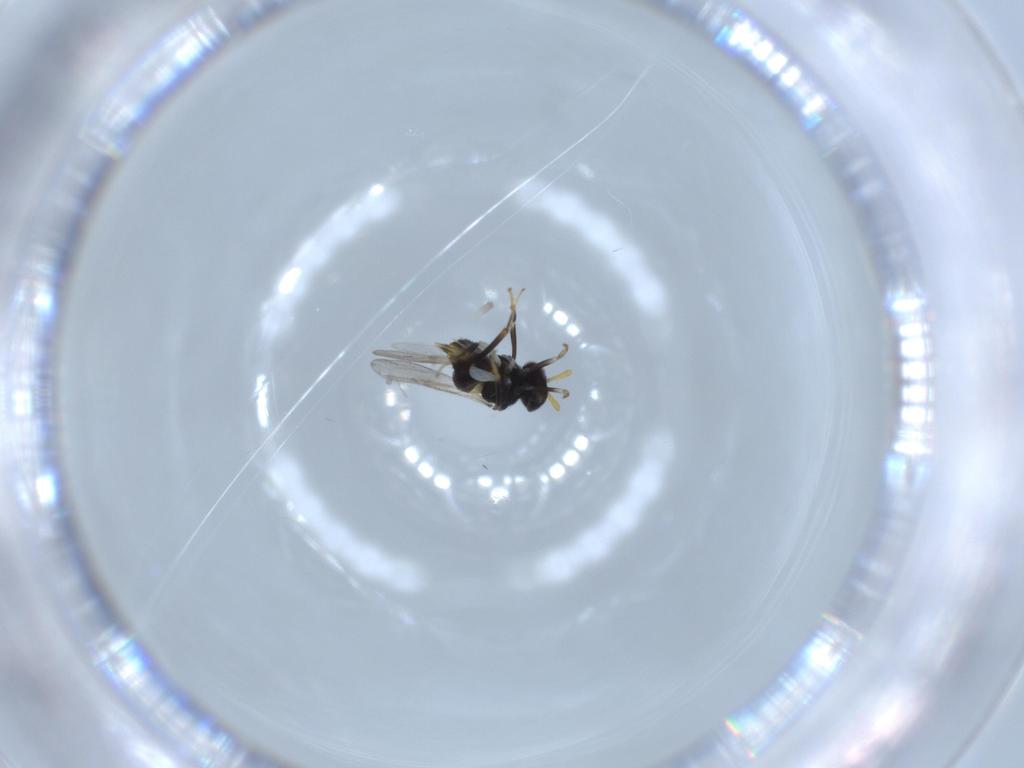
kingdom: Animalia
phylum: Arthropoda
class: Insecta
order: Hymenoptera
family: Aphelinidae
